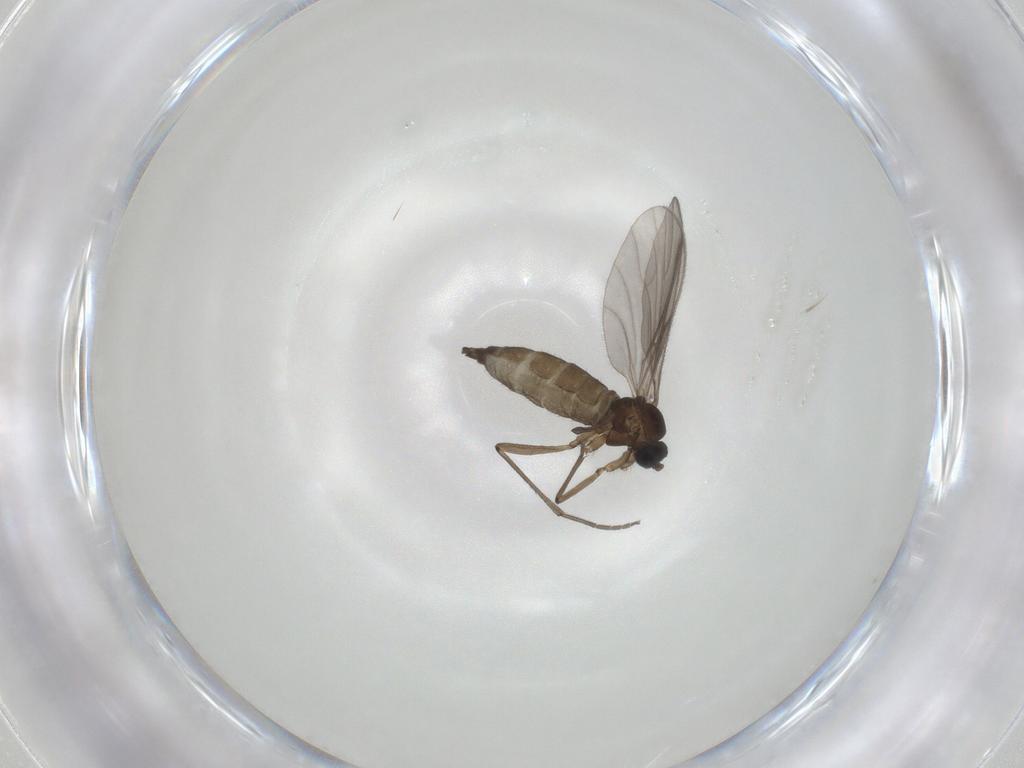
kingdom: Animalia
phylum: Arthropoda
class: Insecta
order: Diptera
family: Sciaridae
